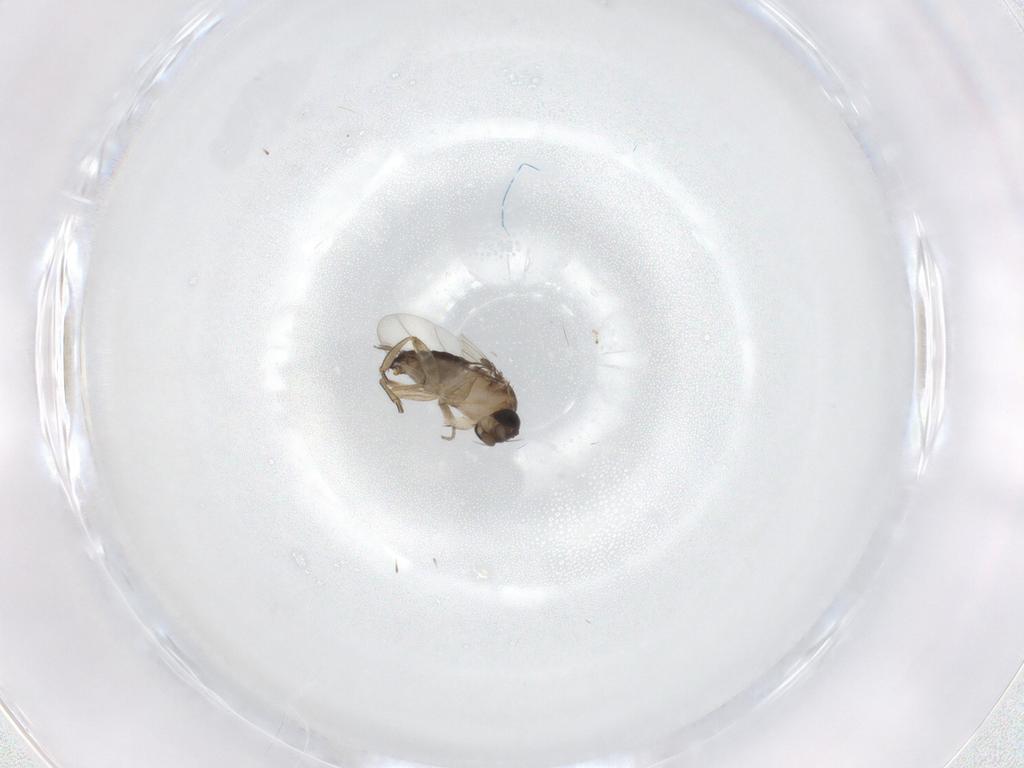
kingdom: Animalia
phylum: Arthropoda
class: Insecta
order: Diptera
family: Phoridae
